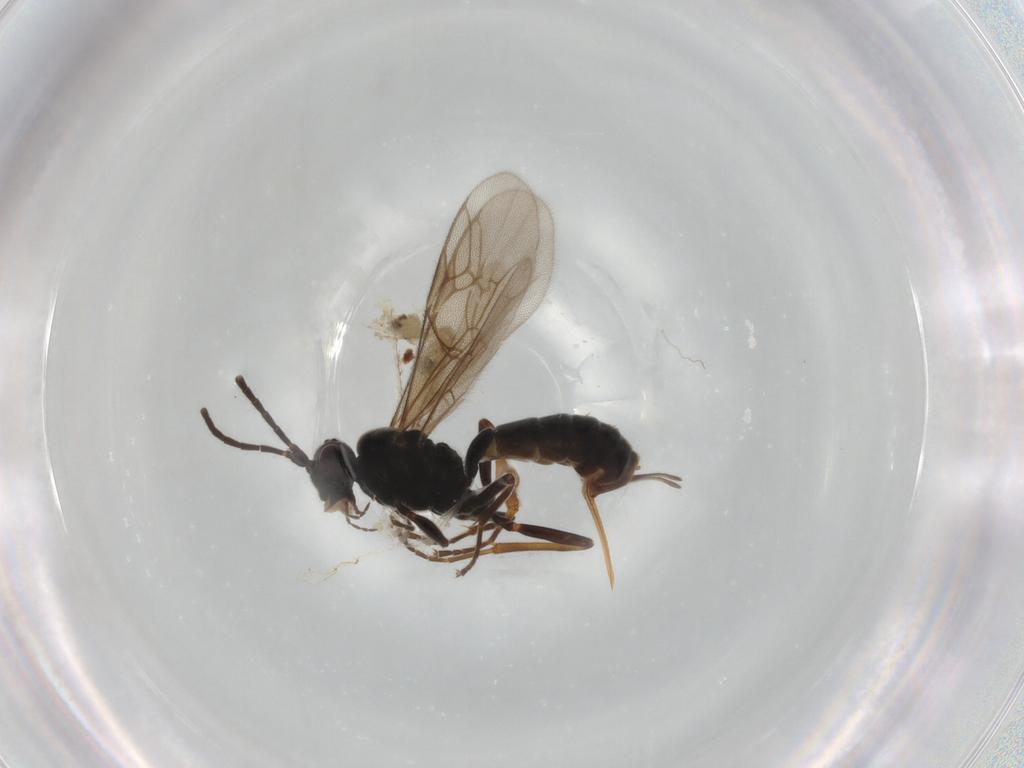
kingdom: Animalia
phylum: Arthropoda
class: Insecta
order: Hymenoptera
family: Ichneumonidae
